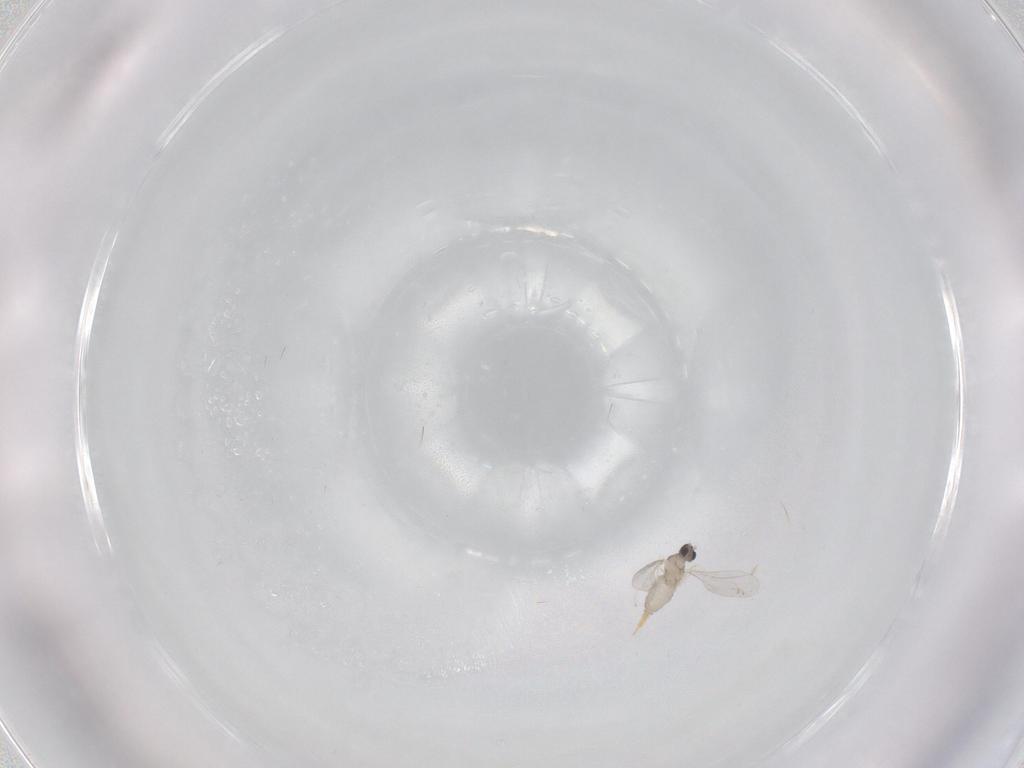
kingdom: Animalia
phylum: Arthropoda
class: Insecta
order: Diptera
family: Cecidomyiidae
